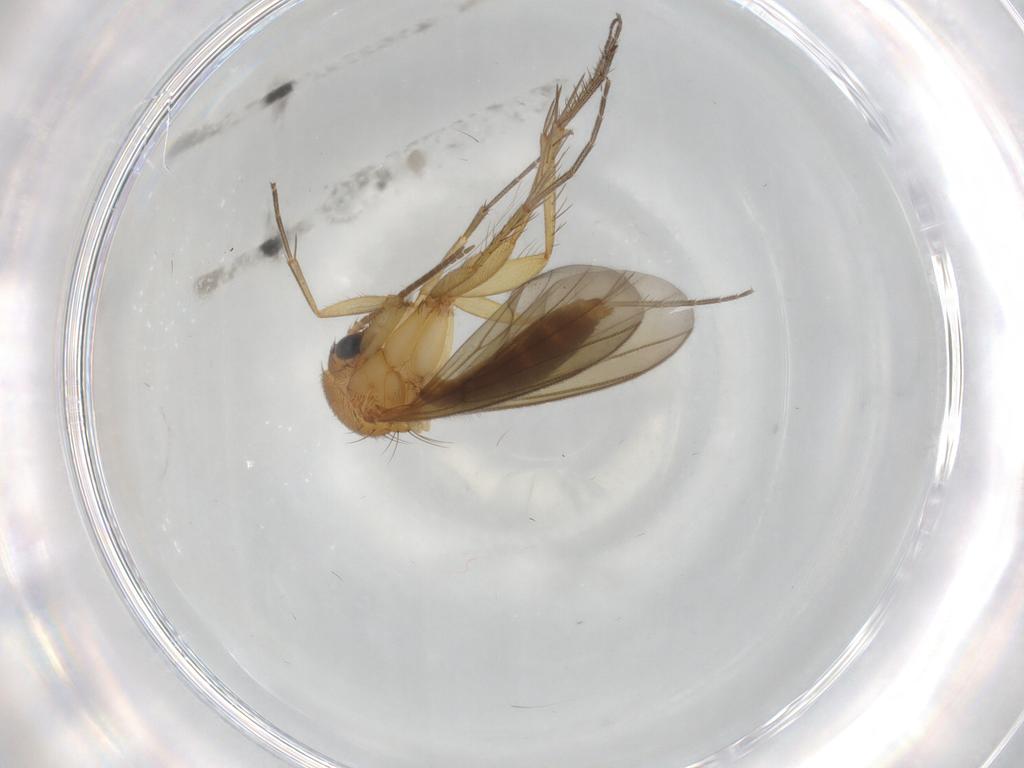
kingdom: Animalia
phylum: Arthropoda
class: Insecta
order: Diptera
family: Mycetophilidae
